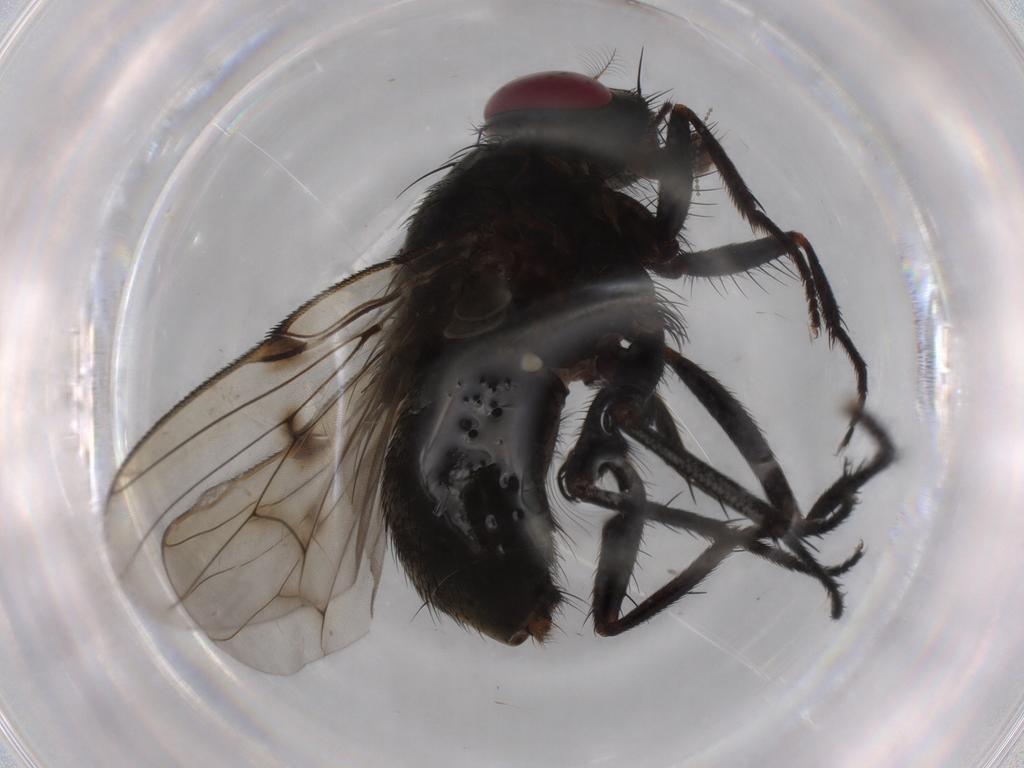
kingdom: Animalia
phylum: Arthropoda
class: Insecta
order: Diptera
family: Muscidae
